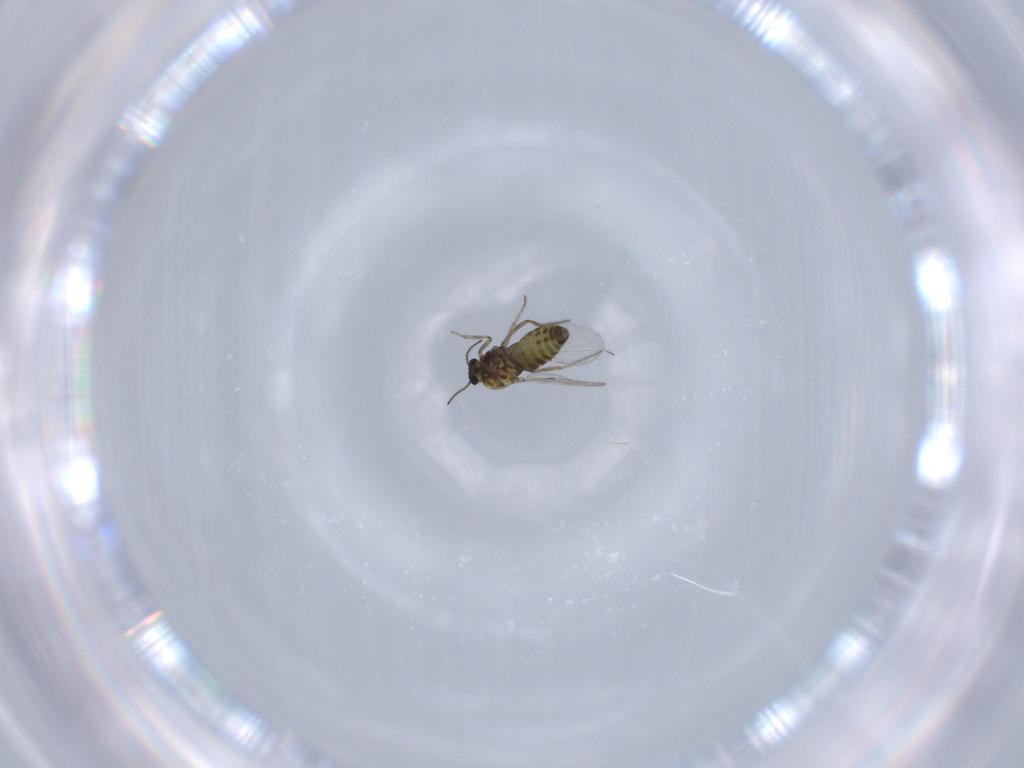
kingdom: Animalia
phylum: Arthropoda
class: Insecta
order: Diptera
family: Ceratopogonidae
